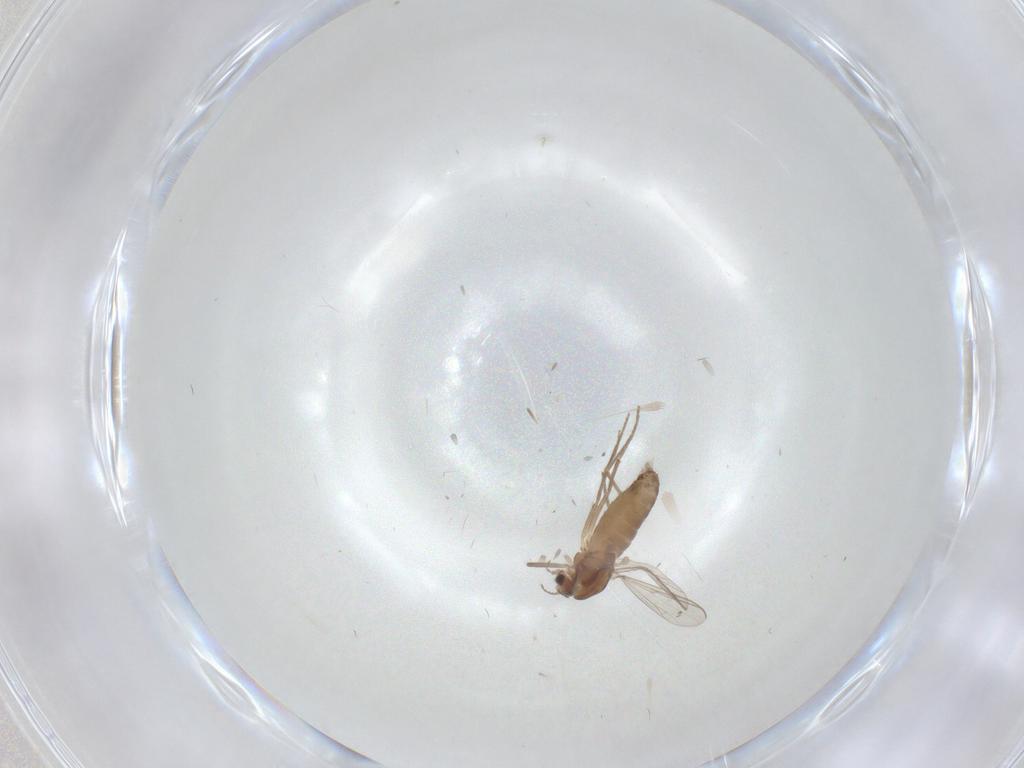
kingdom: Animalia
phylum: Arthropoda
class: Insecta
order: Diptera
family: Chironomidae
